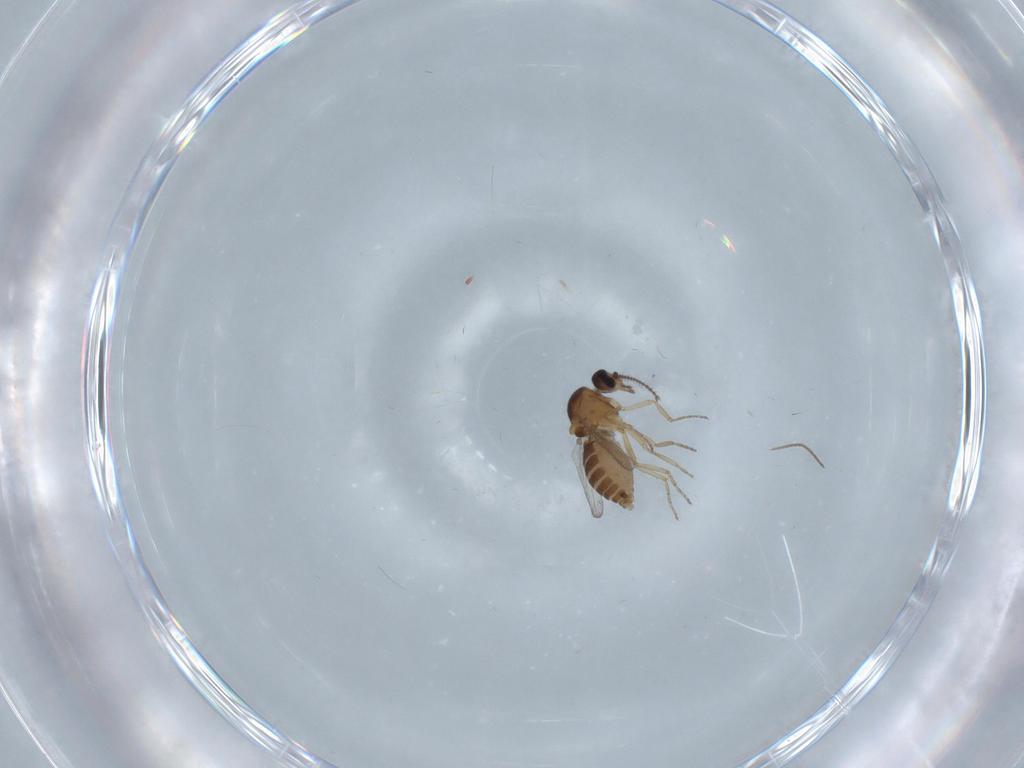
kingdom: Animalia
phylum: Arthropoda
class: Insecta
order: Diptera
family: Cecidomyiidae
